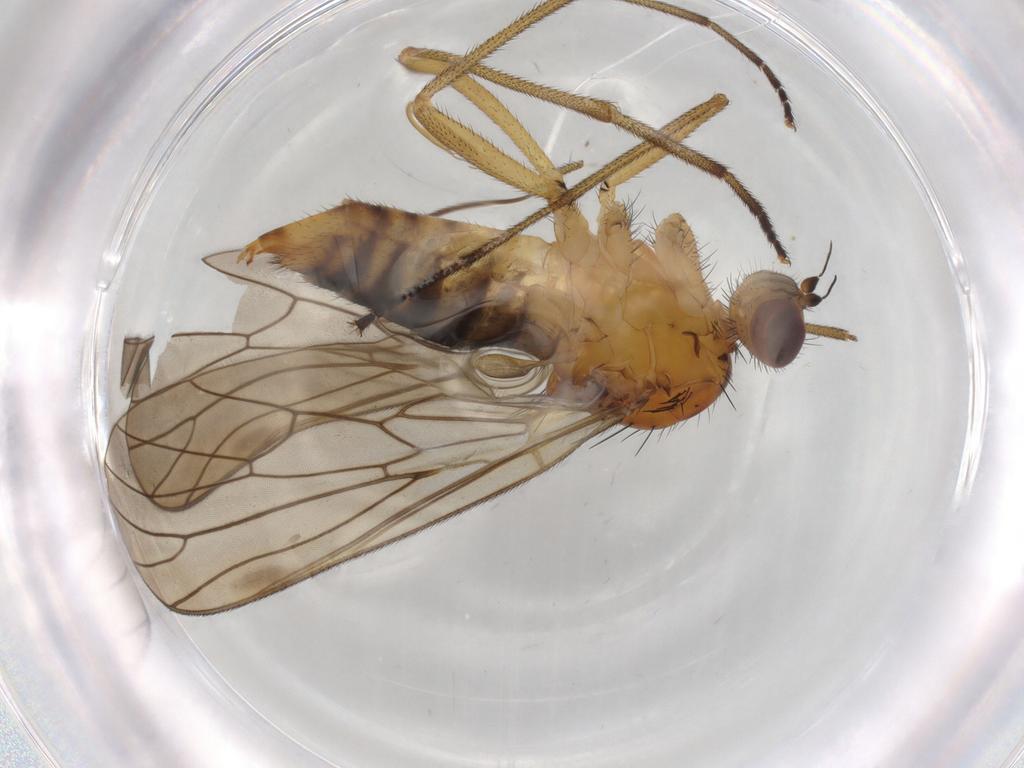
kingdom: Animalia
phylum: Arthropoda
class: Insecta
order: Diptera
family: Brachystomatidae
